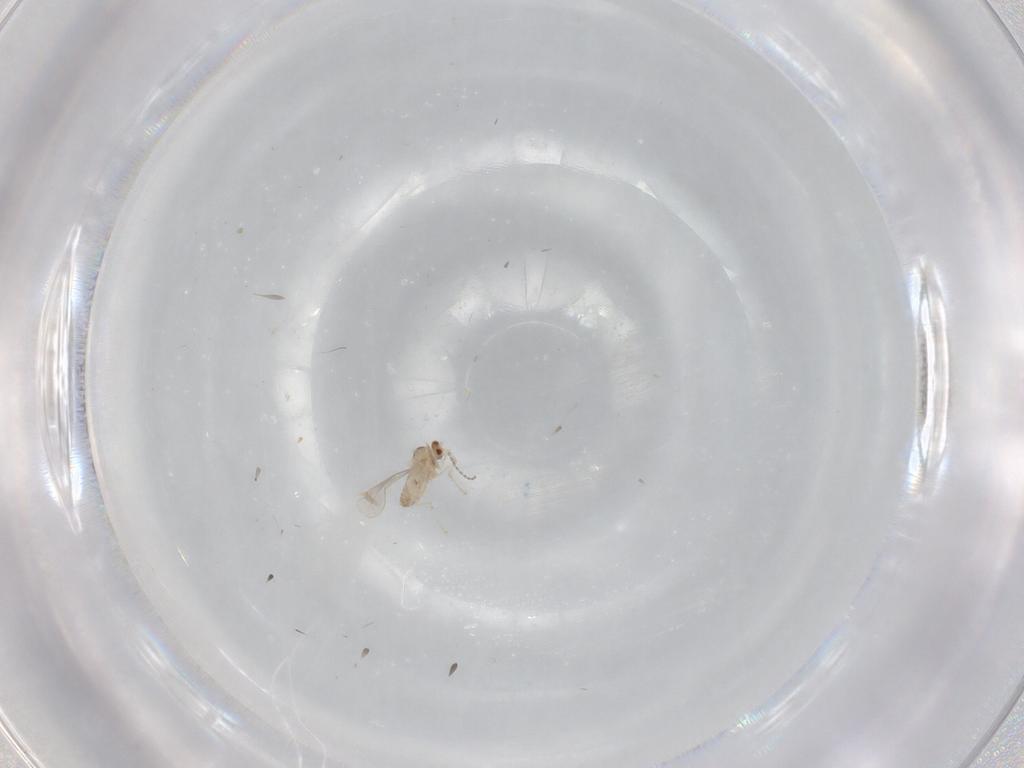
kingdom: Animalia
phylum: Arthropoda
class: Insecta
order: Diptera
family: Cecidomyiidae
